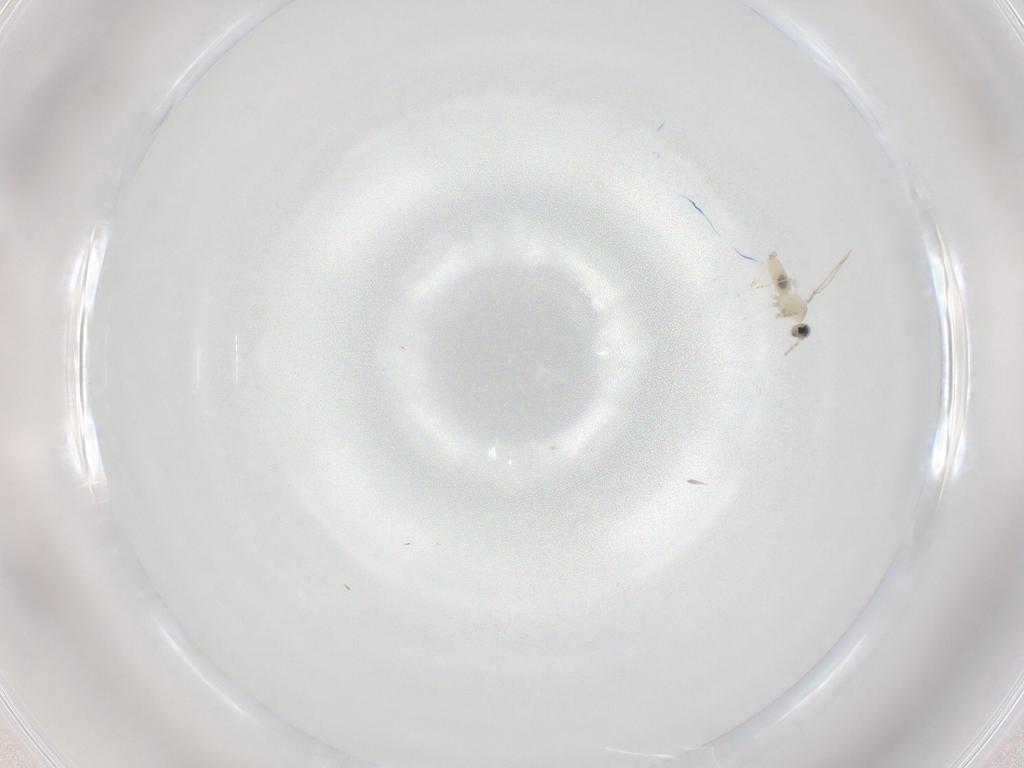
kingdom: Animalia
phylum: Arthropoda
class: Insecta
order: Diptera
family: Cecidomyiidae
